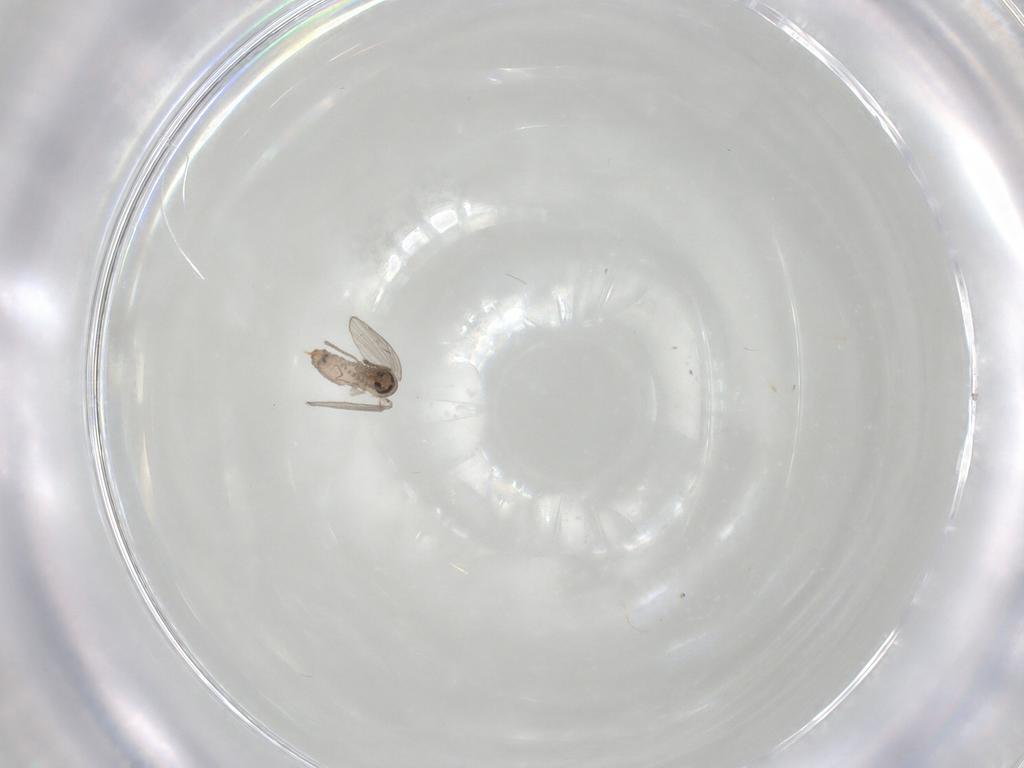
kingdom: Animalia
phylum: Arthropoda
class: Insecta
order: Diptera
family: Psychodidae
